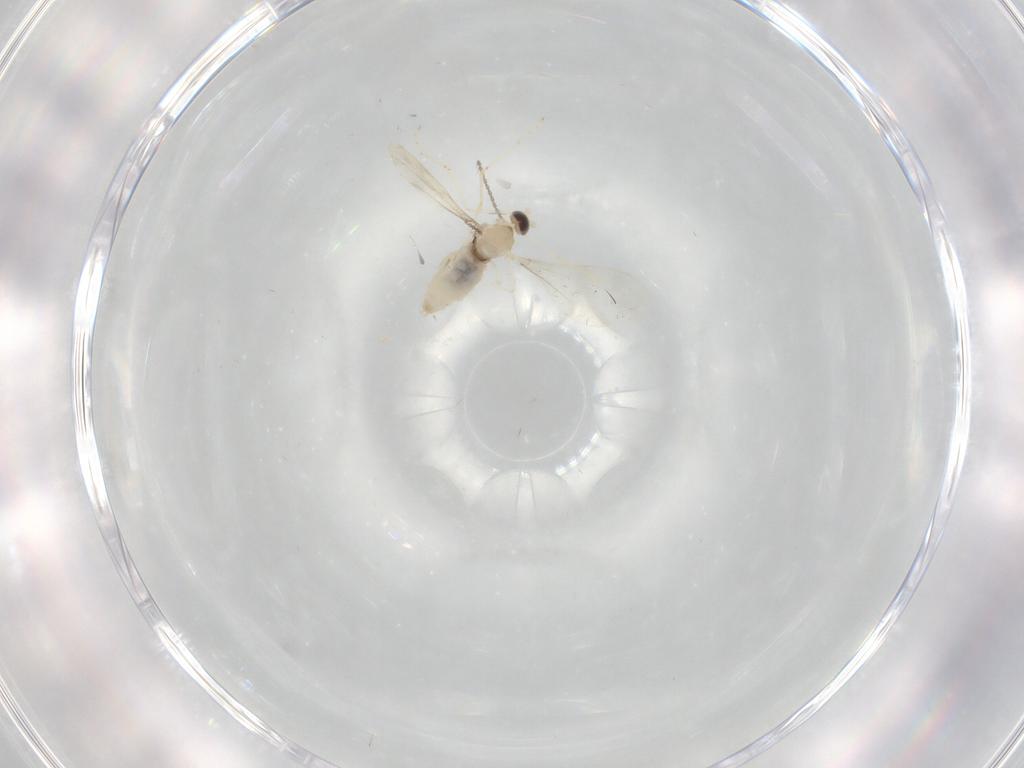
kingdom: Animalia
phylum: Arthropoda
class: Insecta
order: Diptera
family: Cecidomyiidae
